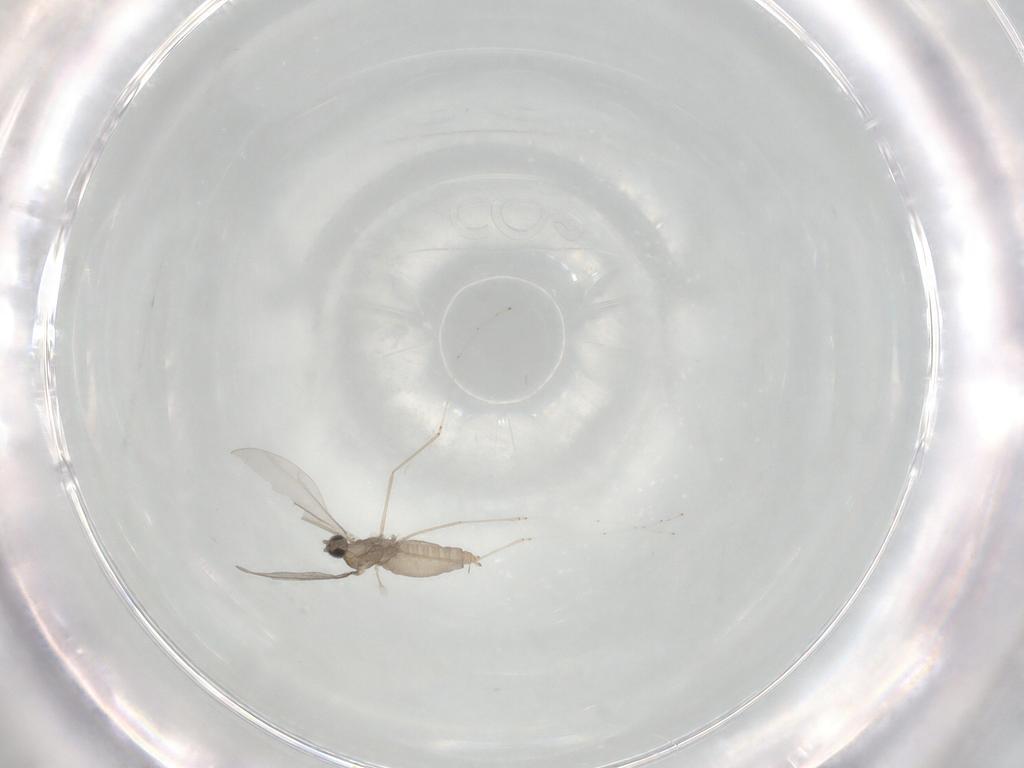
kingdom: Animalia
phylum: Arthropoda
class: Insecta
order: Diptera
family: Cecidomyiidae
